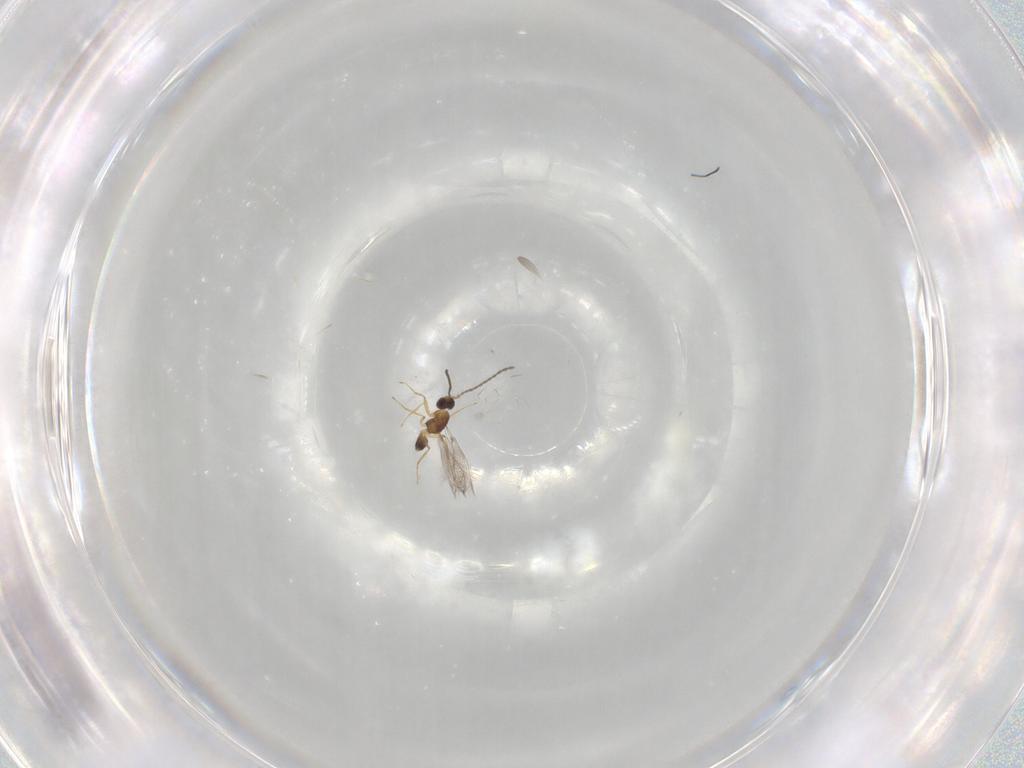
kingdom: Animalia
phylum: Arthropoda
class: Insecta
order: Hymenoptera
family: Mymaridae
